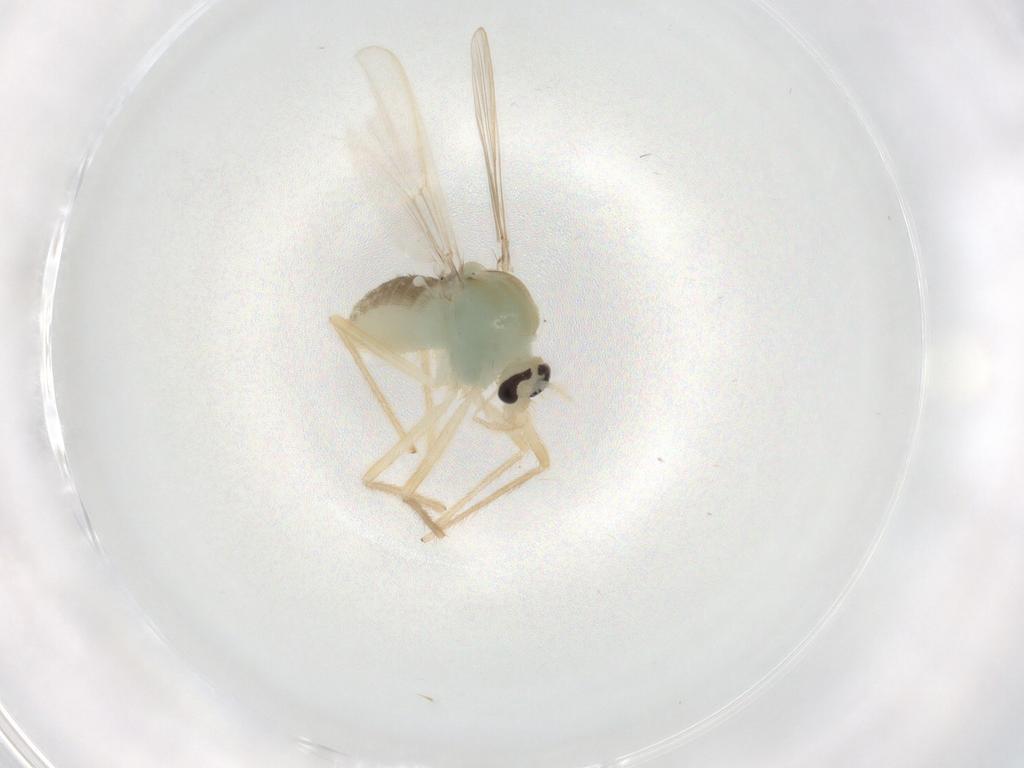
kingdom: Animalia
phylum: Arthropoda
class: Insecta
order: Diptera
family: Chironomidae
